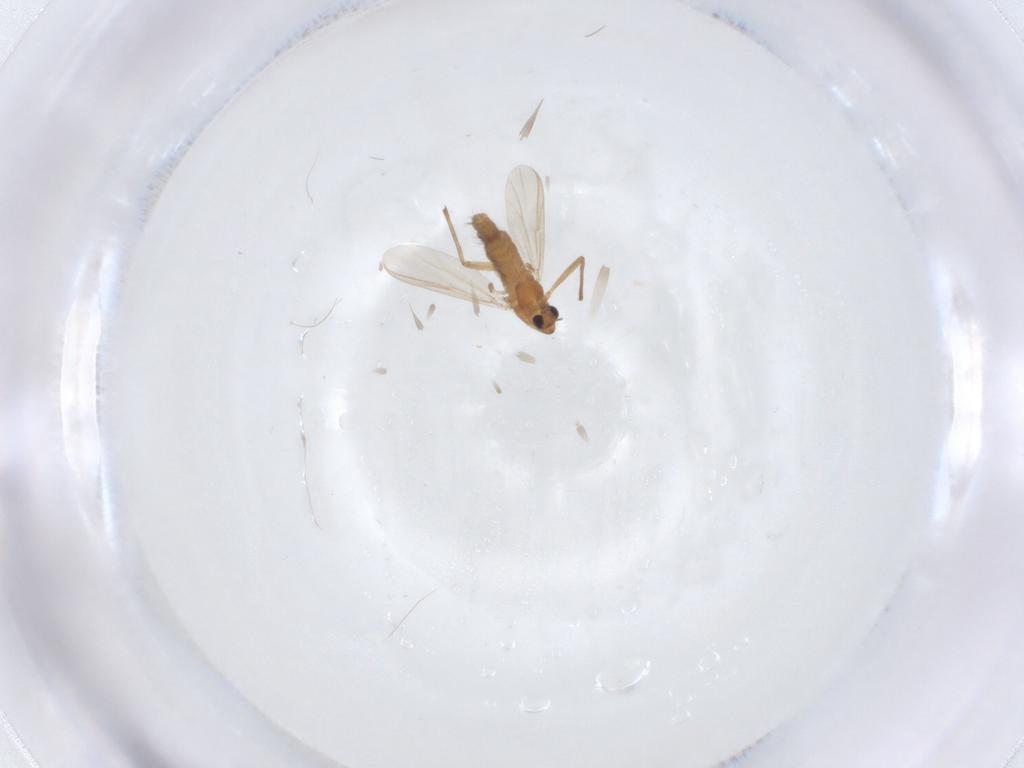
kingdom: Animalia
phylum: Arthropoda
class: Insecta
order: Diptera
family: Chironomidae
